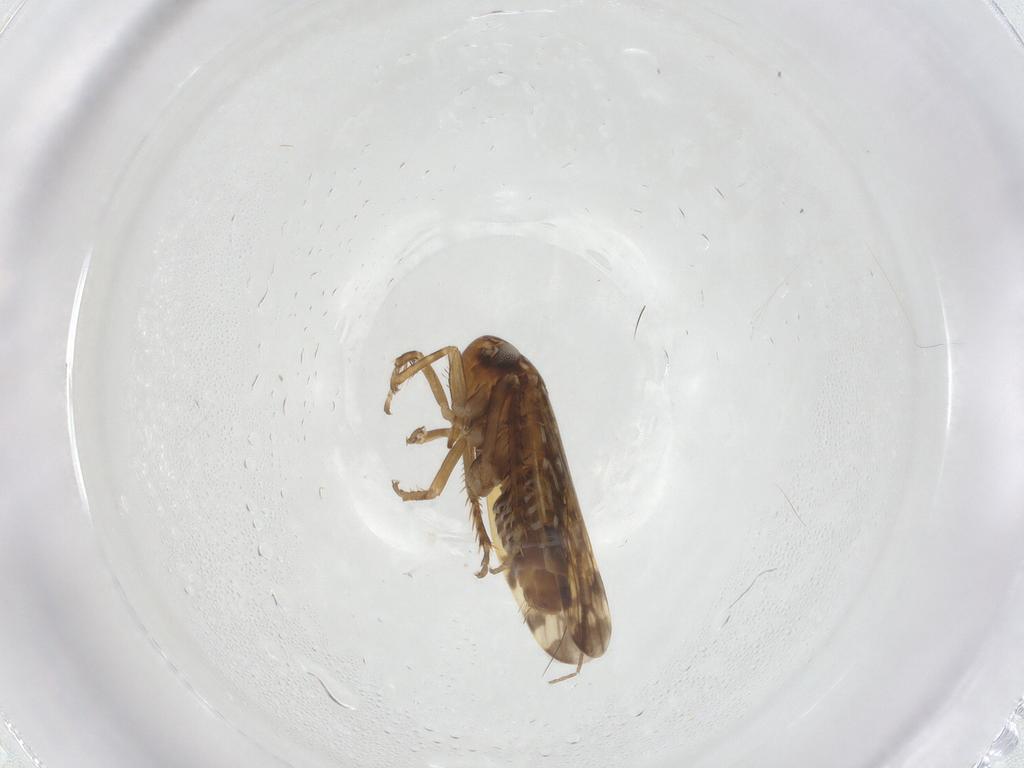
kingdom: Animalia
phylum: Arthropoda
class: Insecta
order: Hemiptera
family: Cicadellidae
